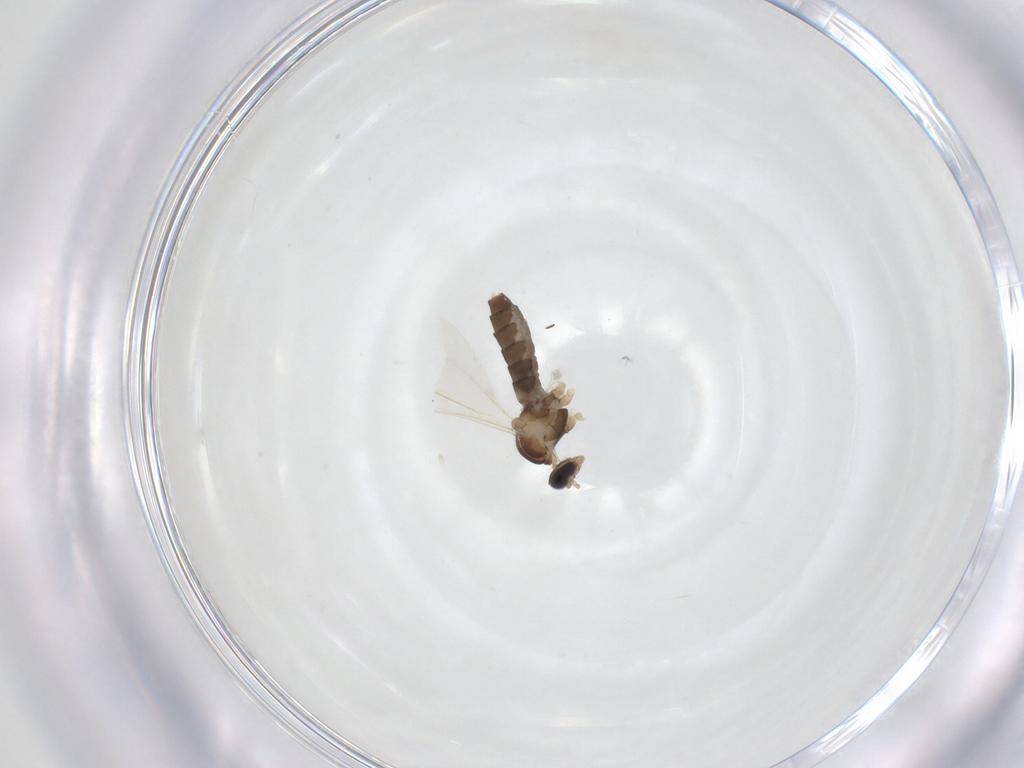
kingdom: Animalia
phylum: Arthropoda
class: Insecta
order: Diptera
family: Cecidomyiidae
